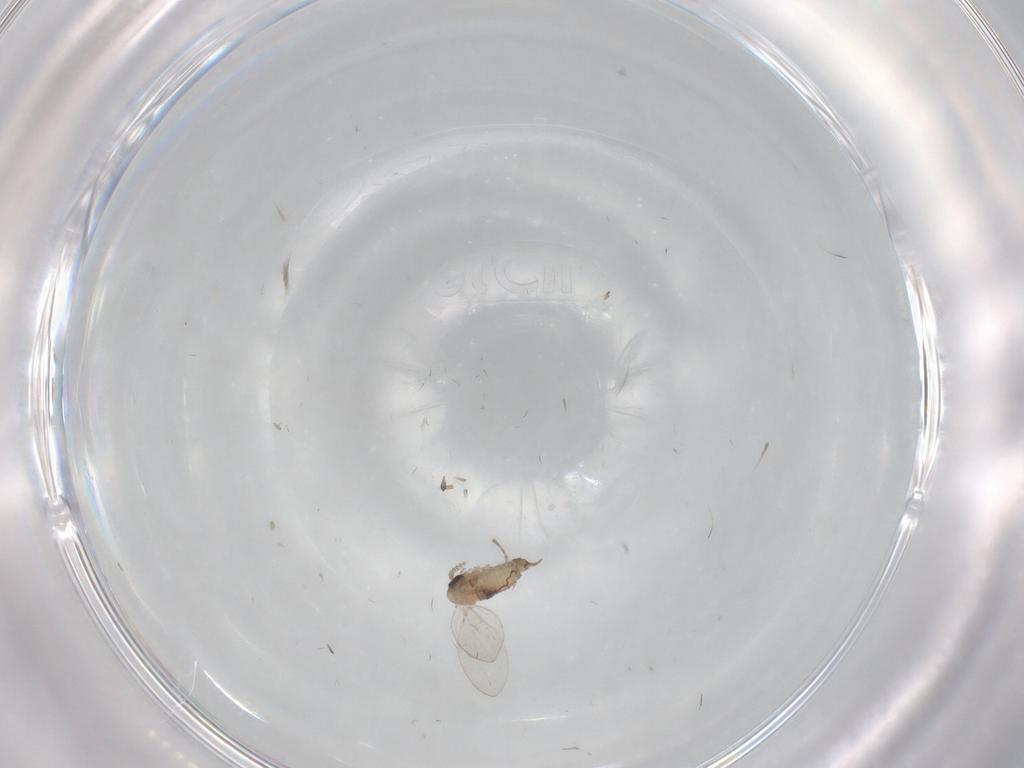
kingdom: Animalia
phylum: Arthropoda
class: Insecta
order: Diptera
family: Psychodidae
